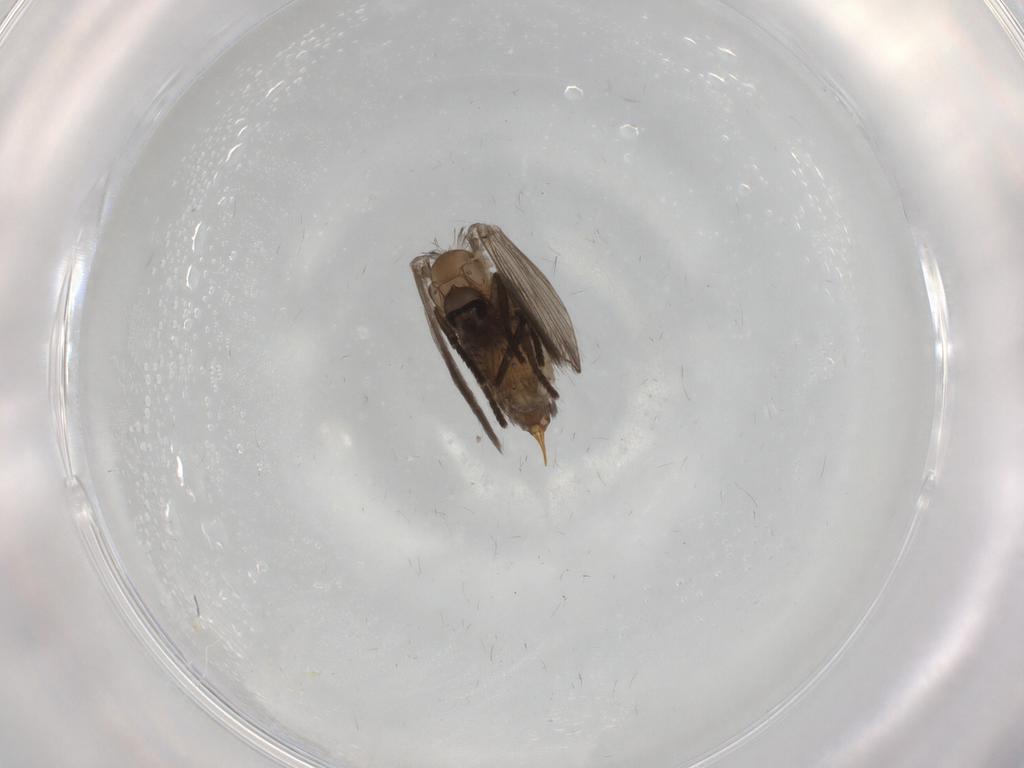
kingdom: Animalia
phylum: Arthropoda
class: Insecta
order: Diptera
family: Psychodidae
